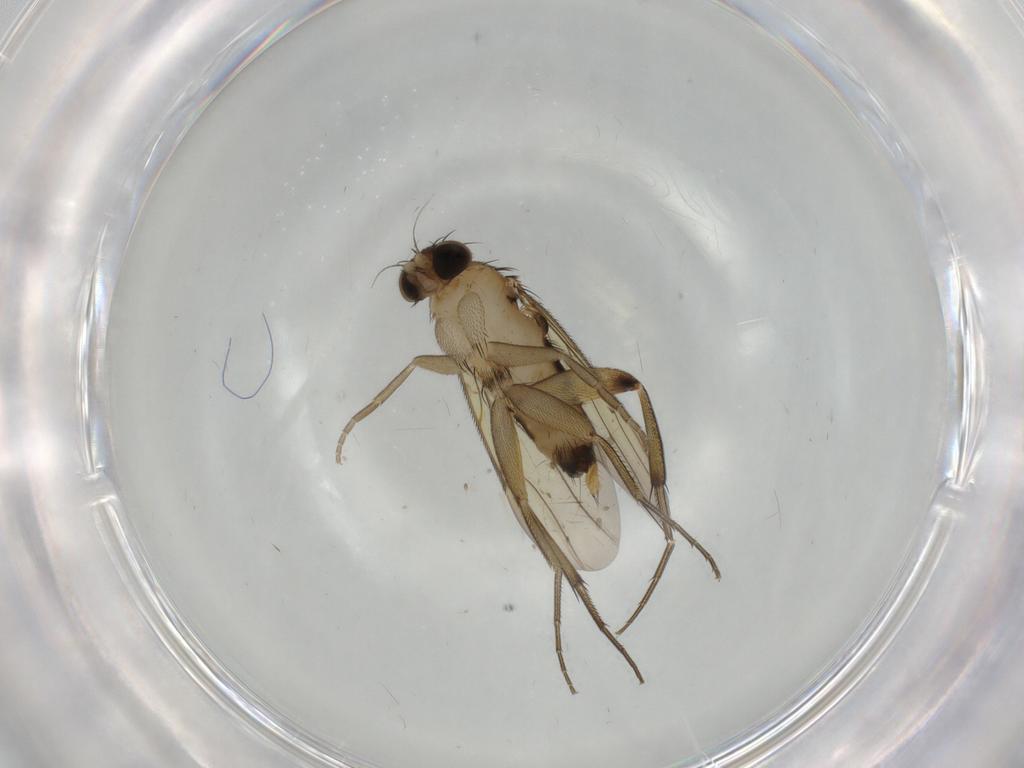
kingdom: Animalia
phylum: Arthropoda
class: Insecta
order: Diptera
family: Cecidomyiidae
